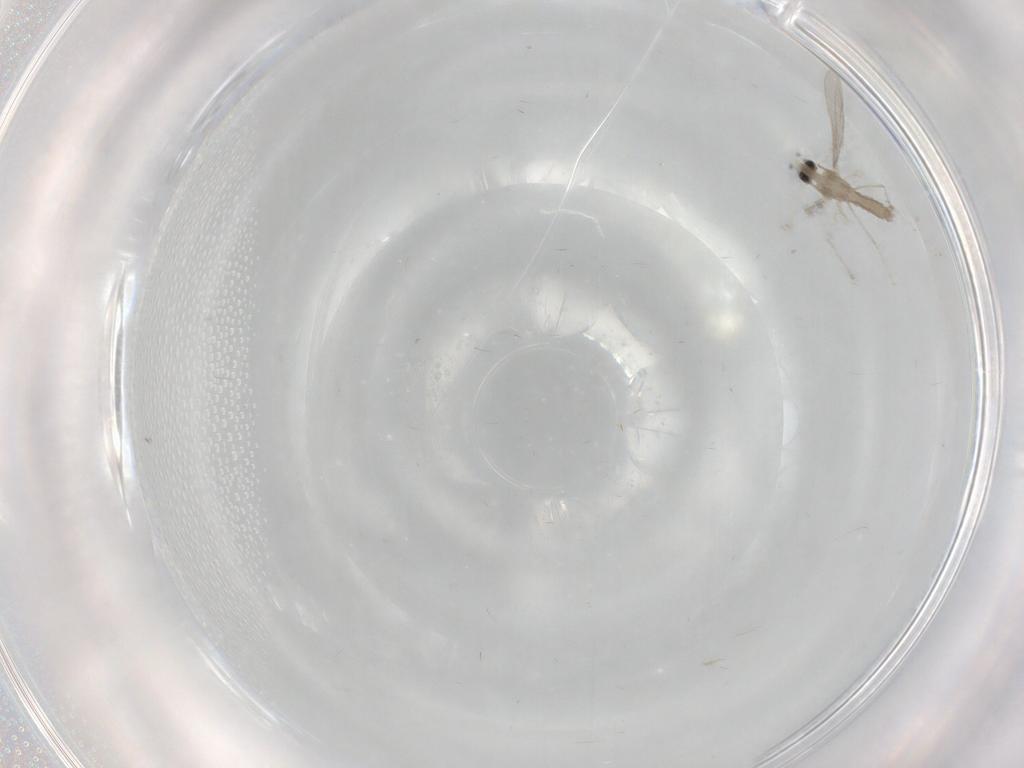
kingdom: Animalia
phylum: Arthropoda
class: Insecta
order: Diptera
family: Cecidomyiidae
